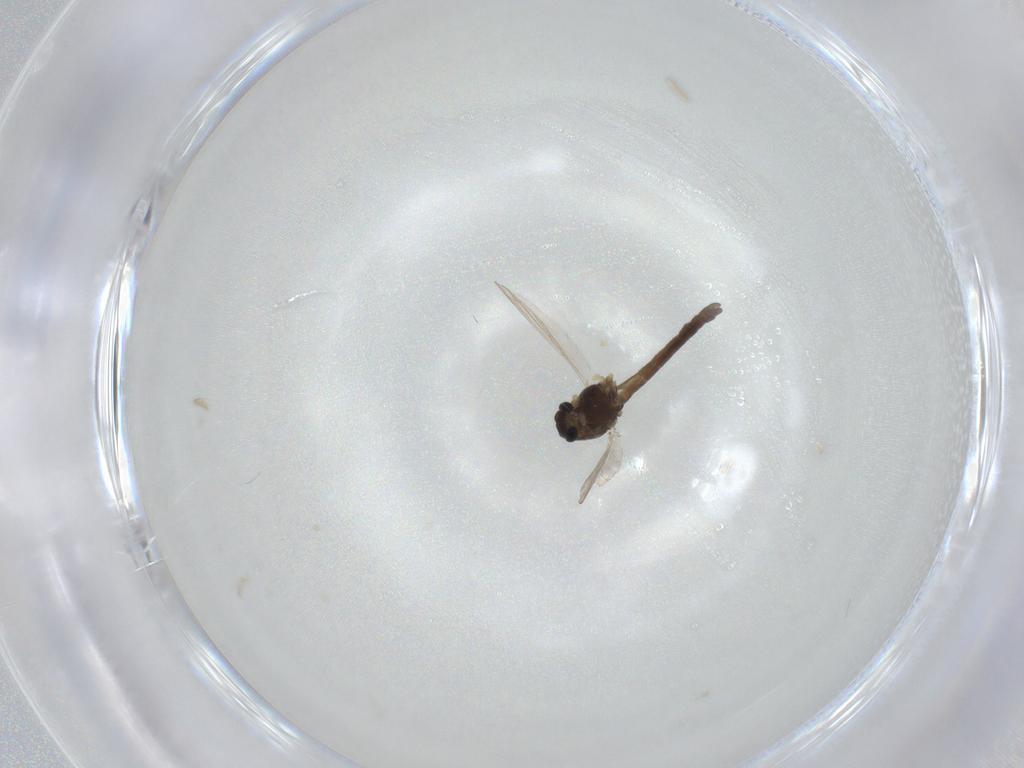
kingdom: Animalia
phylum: Arthropoda
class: Insecta
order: Diptera
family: Chironomidae
